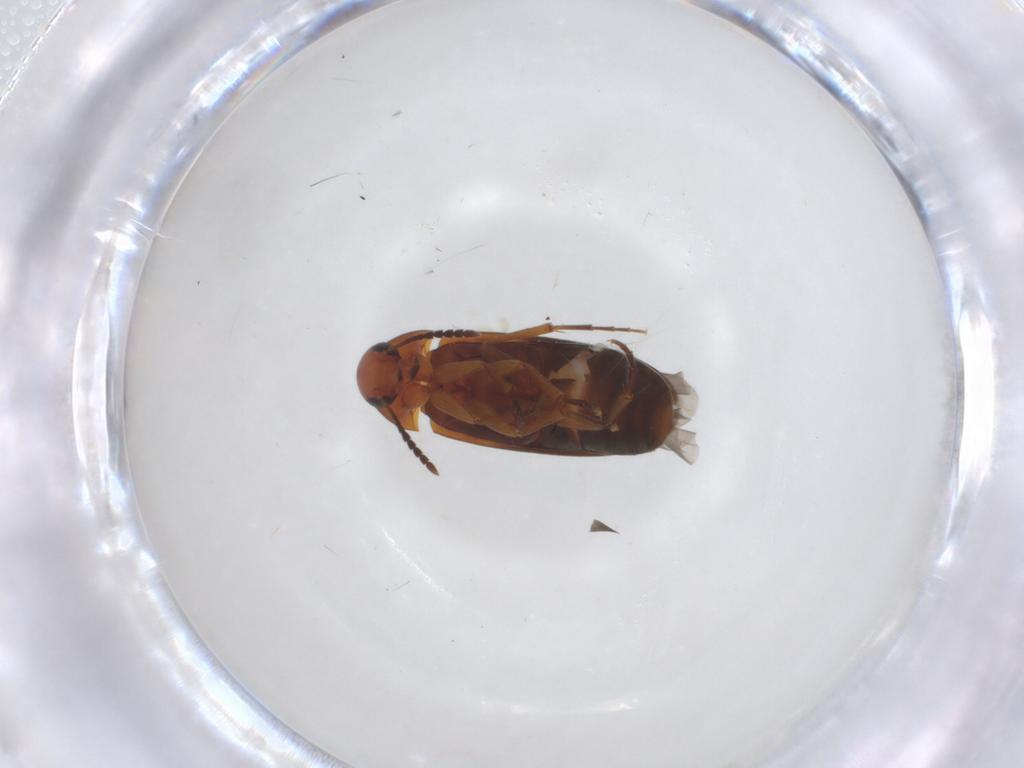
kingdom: Animalia
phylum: Arthropoda
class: Insecta
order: Coleoptera
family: Scraptiidae
